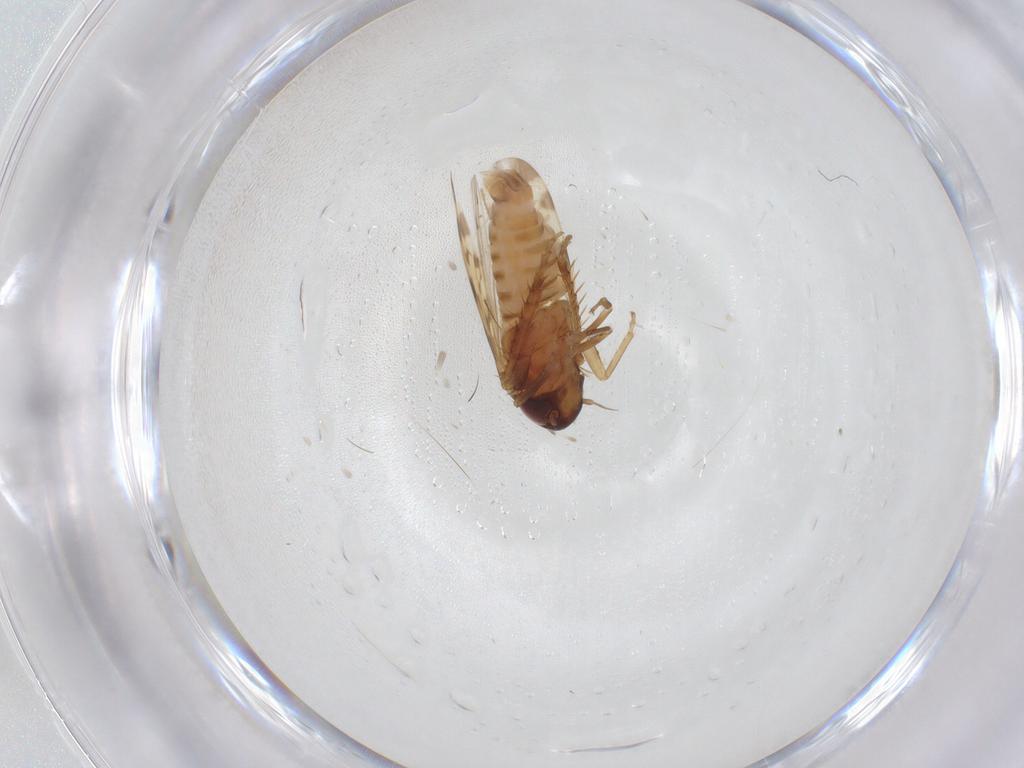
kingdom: Animalia
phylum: Arthropoda
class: Insecta
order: Hemiptera
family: Cicadellidae
